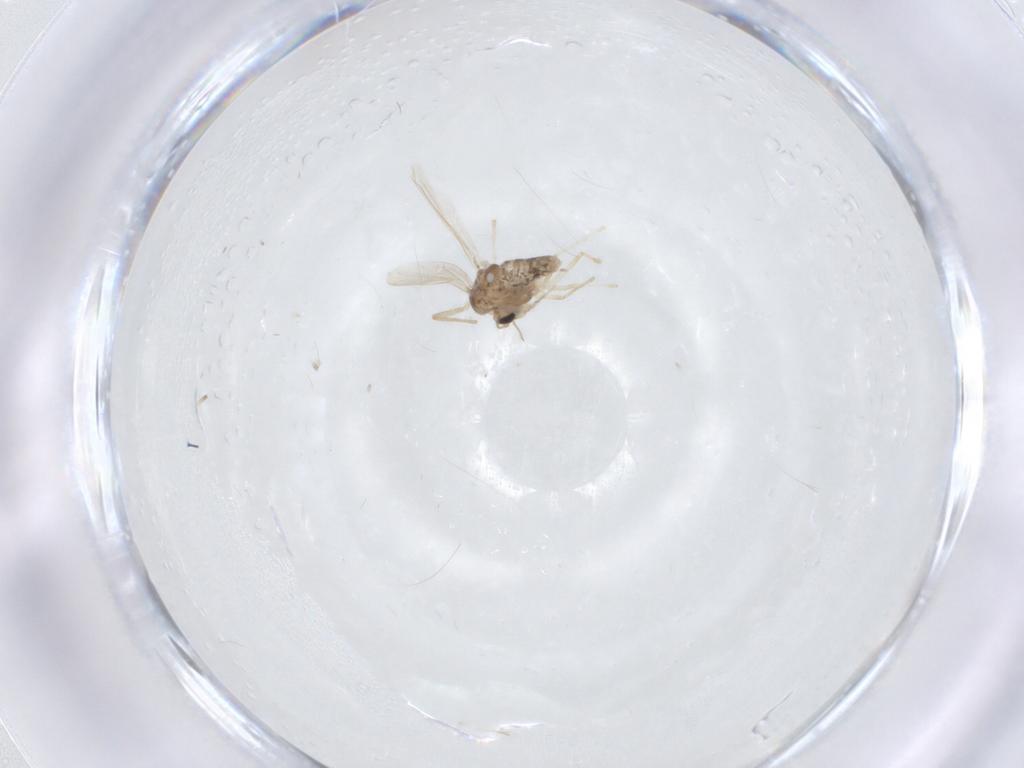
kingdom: Animalia
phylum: Arthropoda
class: Insecta
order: Diptera
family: Chironomidae
